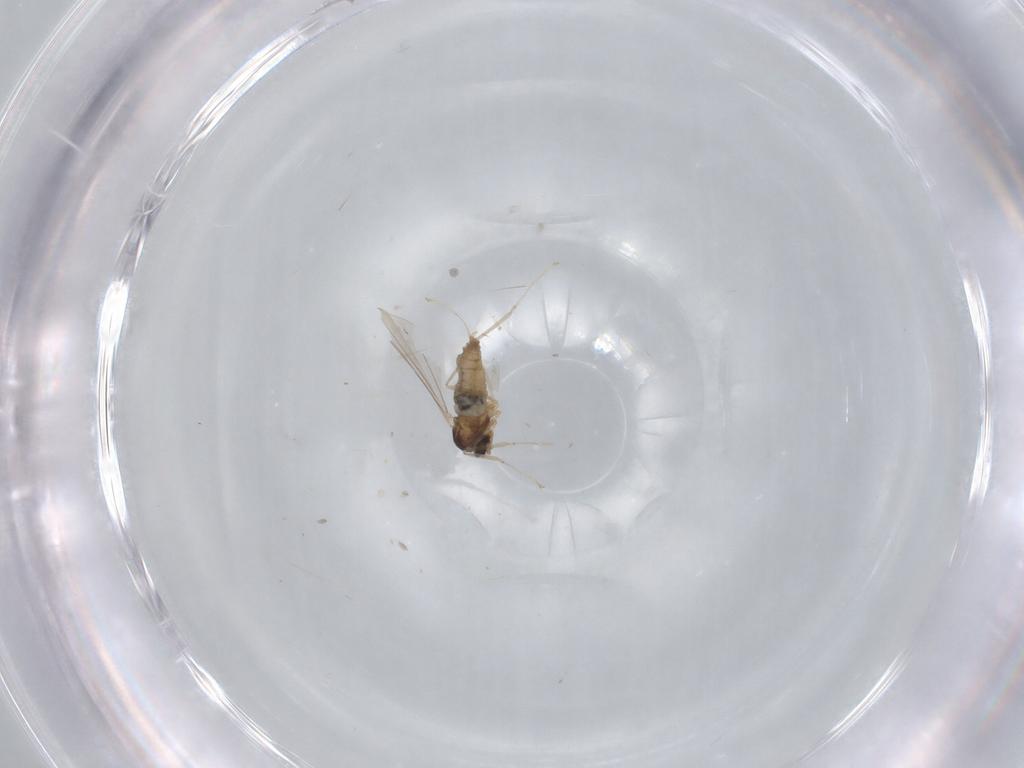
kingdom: Animalia
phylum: Arthropoda
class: Insecta
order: Diptera
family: Cecidomyiidae
